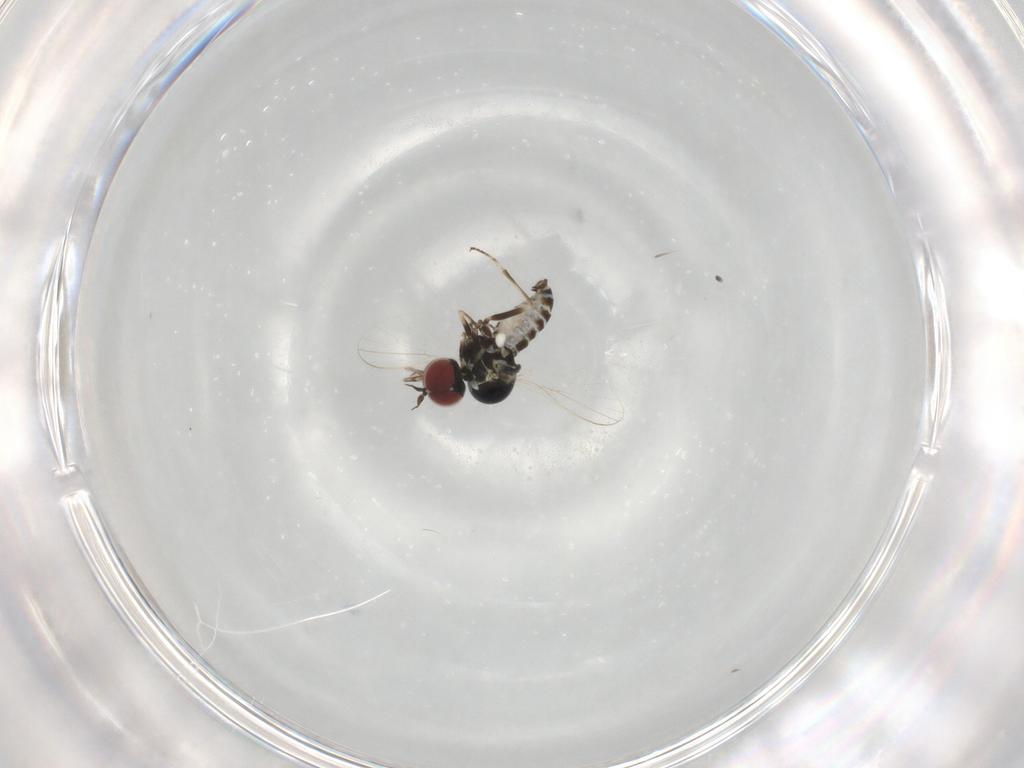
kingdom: Animalia
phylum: Arthropoda
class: Insecta
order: Diptera
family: Mythicomyiidae
